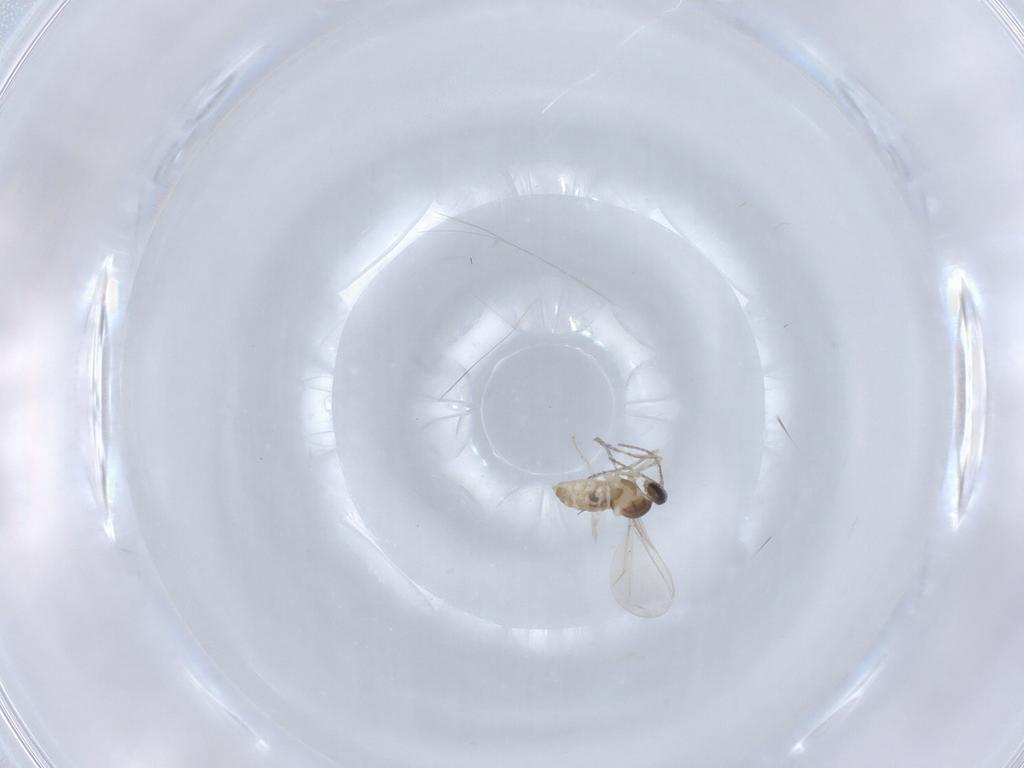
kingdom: Animalia
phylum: Arthropoda
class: Insecta
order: Diptera
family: Cecidomyiidae
